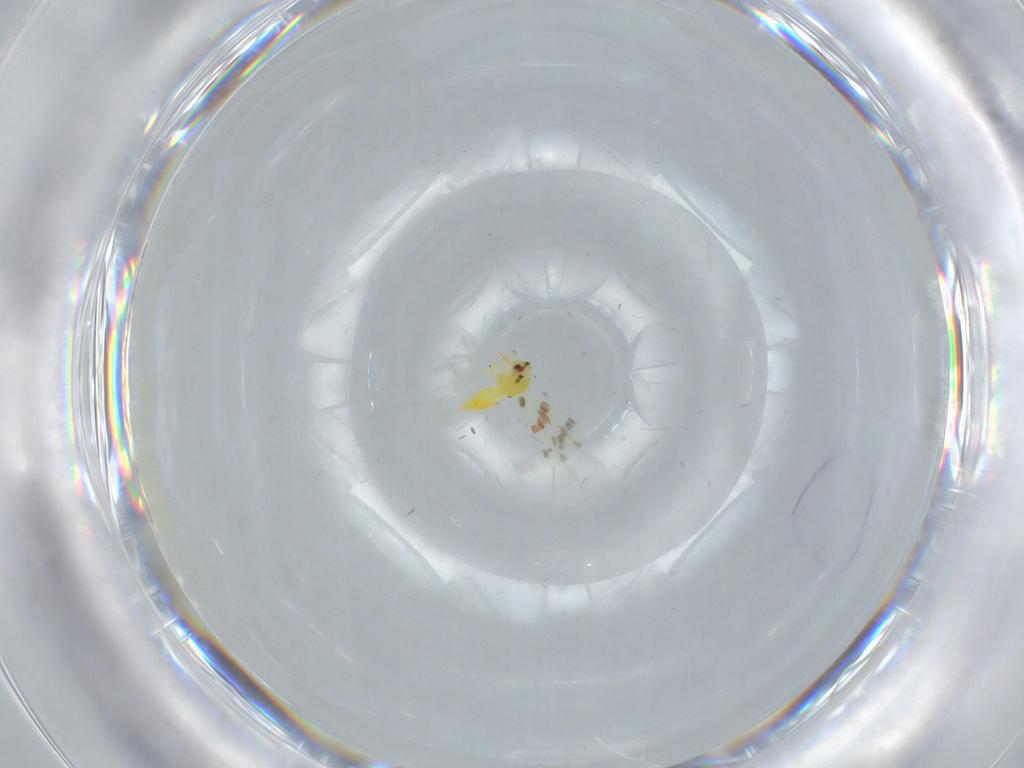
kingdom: Animalia
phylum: Arthropoda
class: Insecta
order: Hemiptera
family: Aleyrodidae
